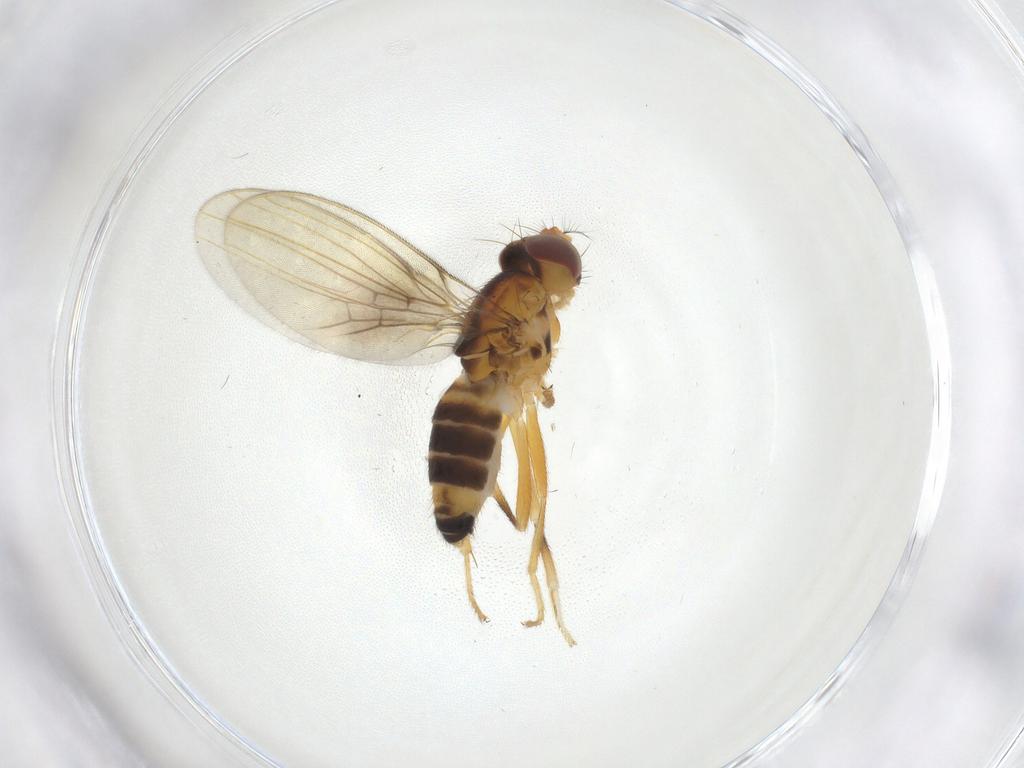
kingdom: Animalia
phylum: Arthropoda
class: Insecta
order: Diptera
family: Periscelididae
